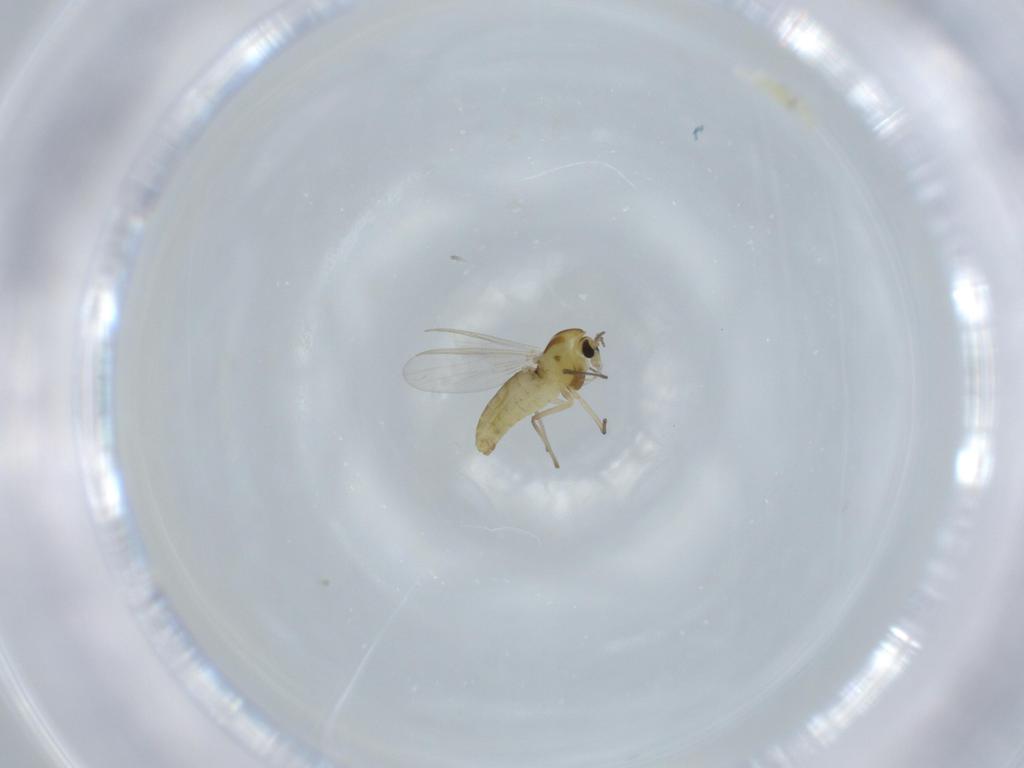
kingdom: Animalia
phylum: Arthropoda
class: Insecta
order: Diptera
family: Chironomidae
